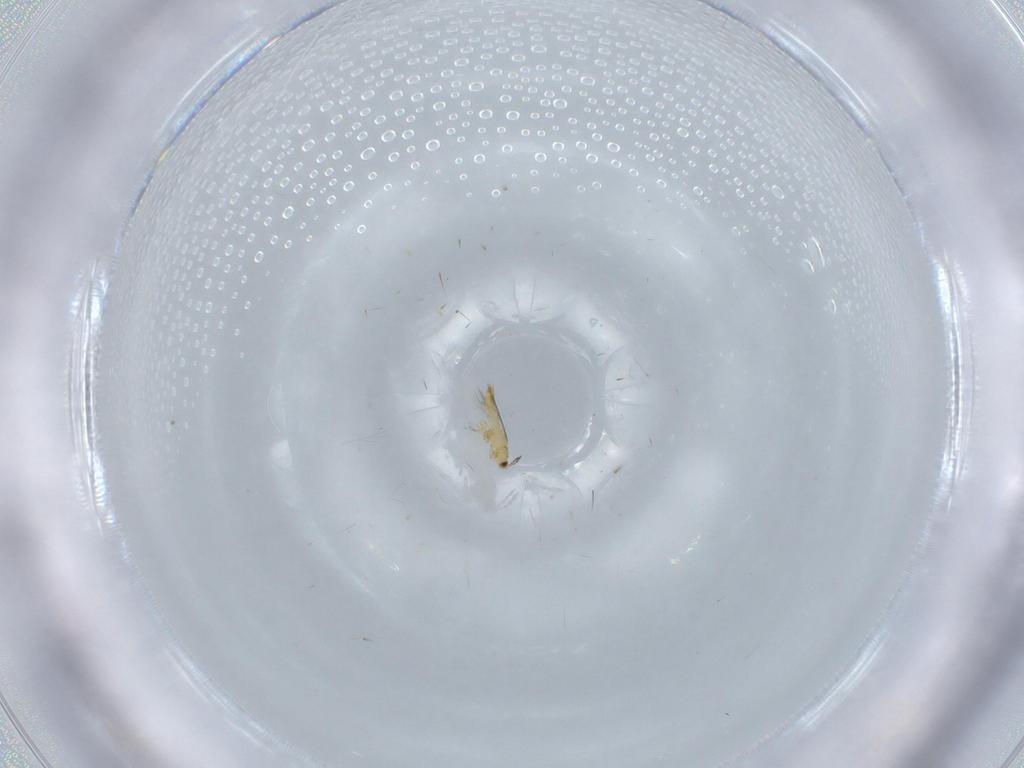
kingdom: Animalia
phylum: Arthropoda
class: Insecta
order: Thysanoptera
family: Thripidae
